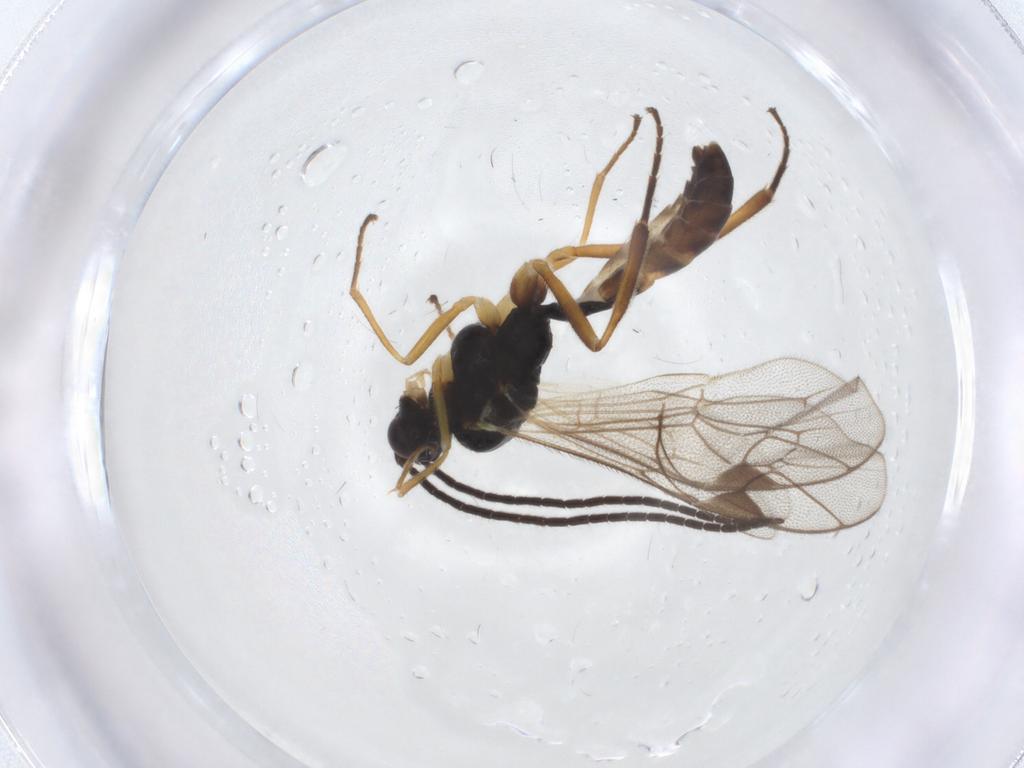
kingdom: Animalia
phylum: Arthropoda
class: Insecta
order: Hymenoptera
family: Ichneumonidae
